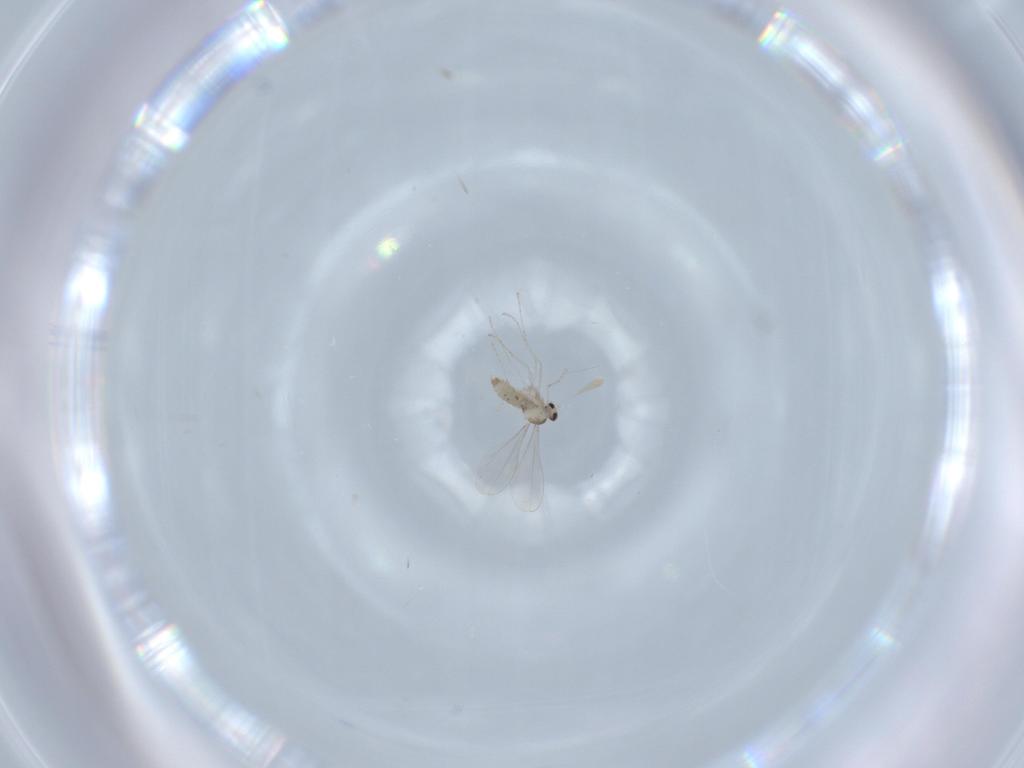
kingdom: Animalia
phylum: Arthropoda
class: Insecta
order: Diptera
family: Cecidomyiidae
